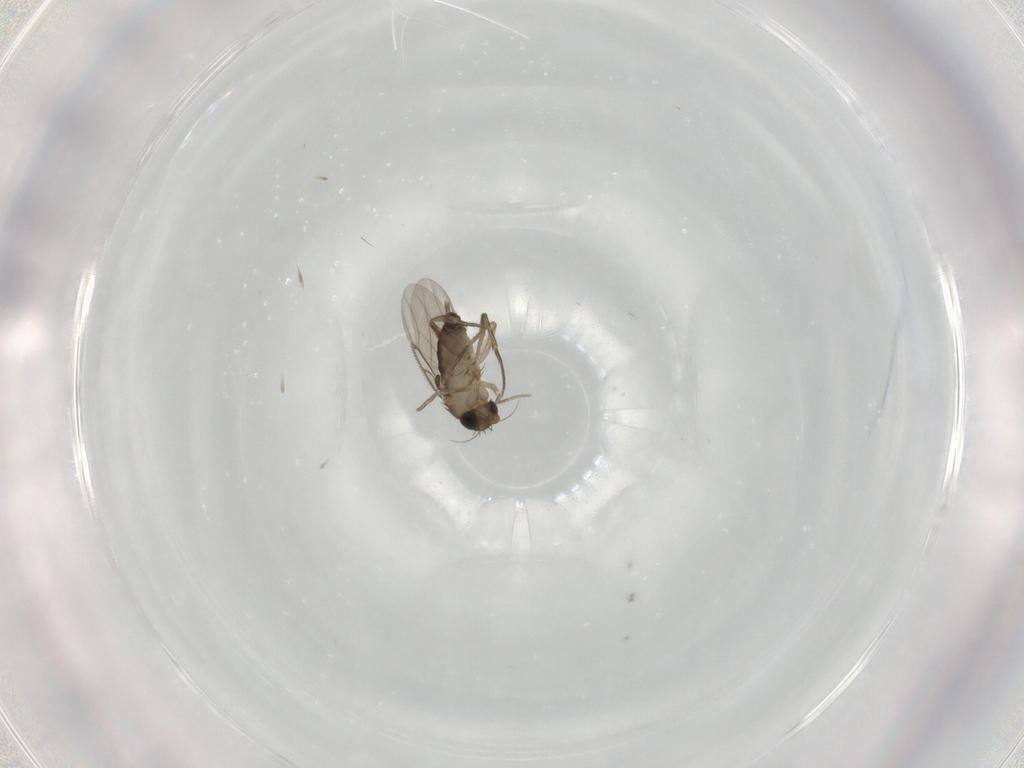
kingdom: Animalia
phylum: Arthropoda
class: Insecta
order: Diptera
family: Phoridae
